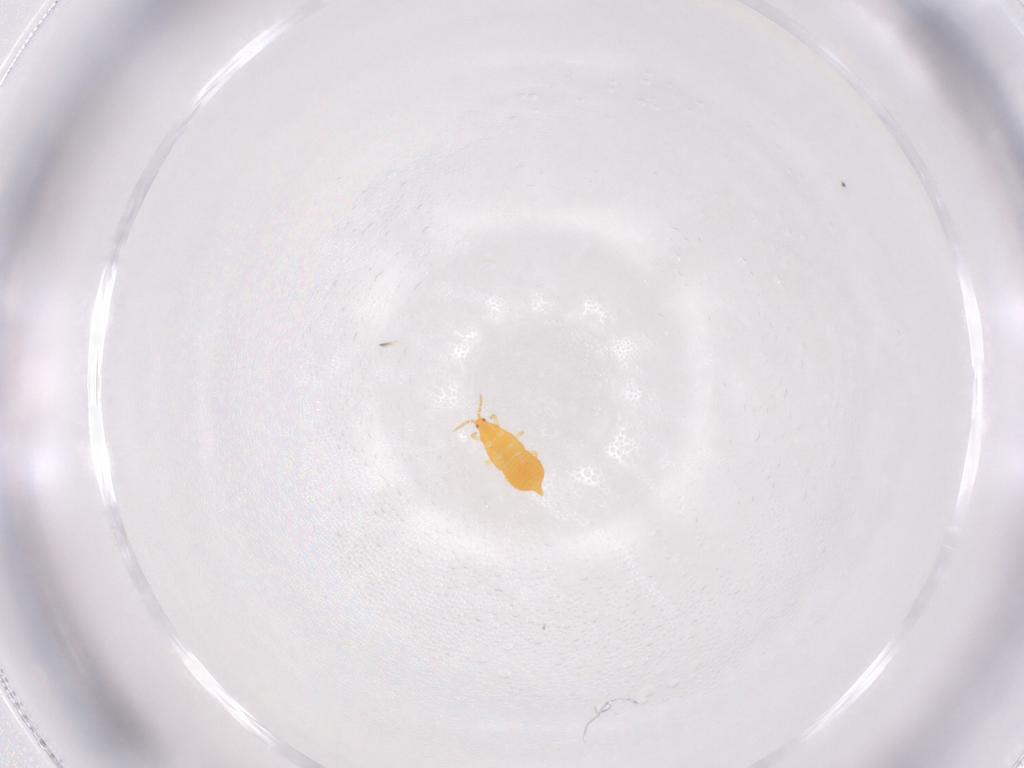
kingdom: Animalia
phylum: Arthropoda
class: Insecta
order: Thysanoptera
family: Heterothripidae
